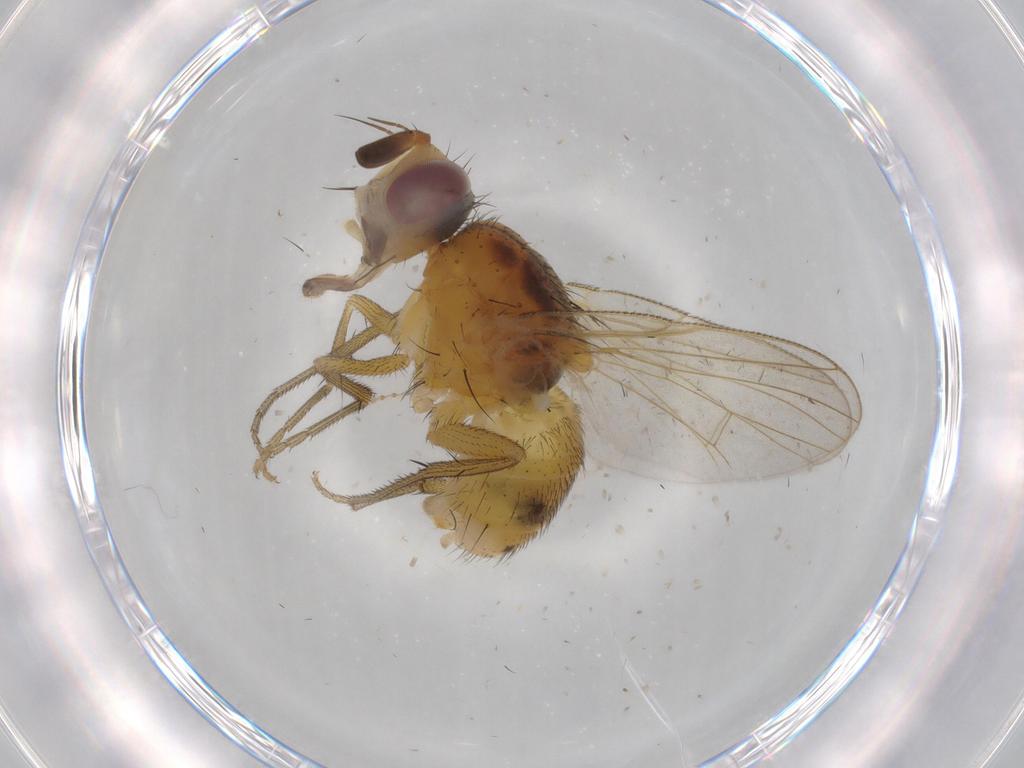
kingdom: Animalia
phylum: Arthropoda
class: Insecta
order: Diptera
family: Muscidae
